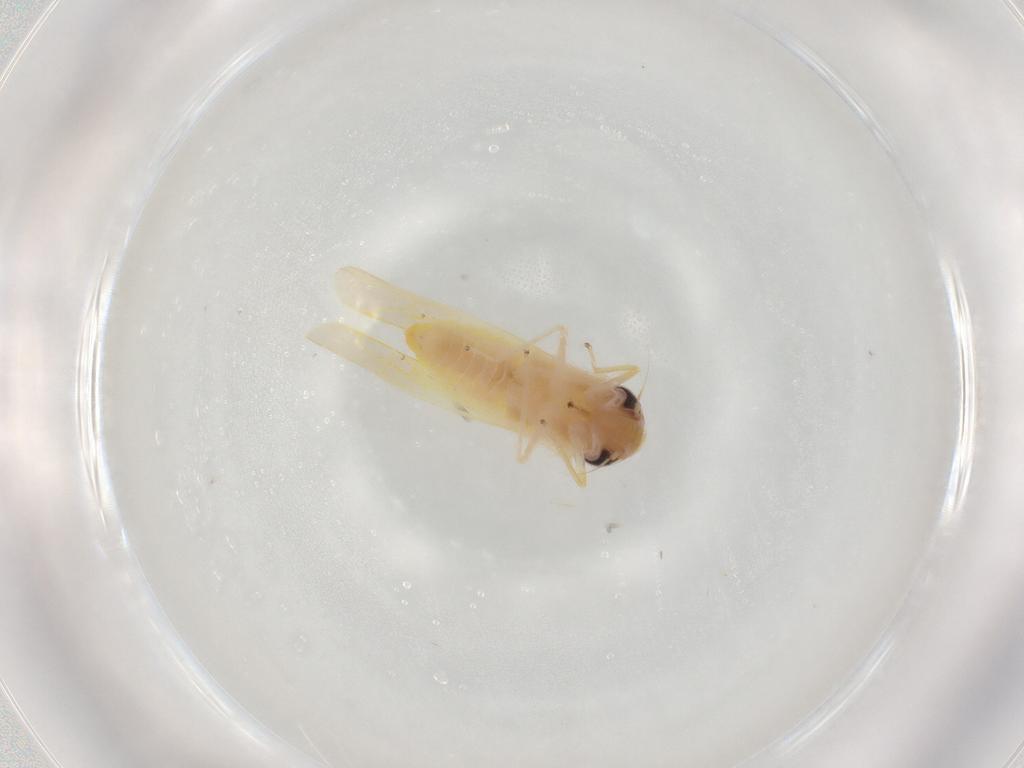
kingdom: Animalia
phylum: Arthropoda
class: Insecta
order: Hemiptera
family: Cicadellidae
